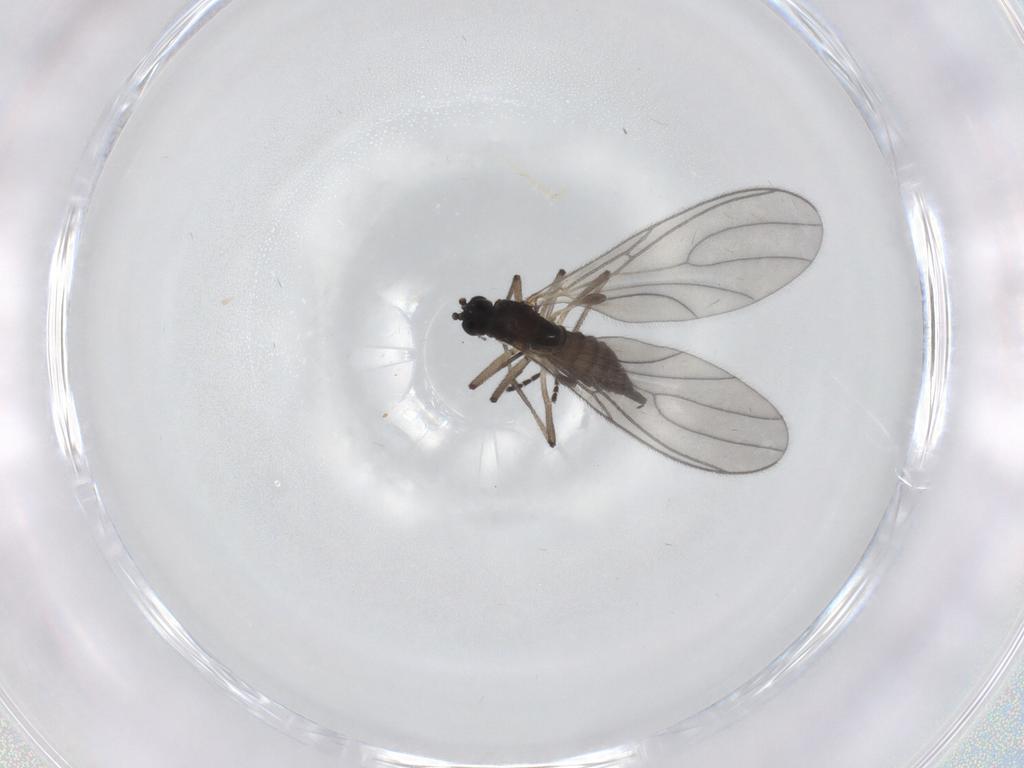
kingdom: Animalia
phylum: Arthropoda
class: Insecta
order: Diptera
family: Sciaridae
